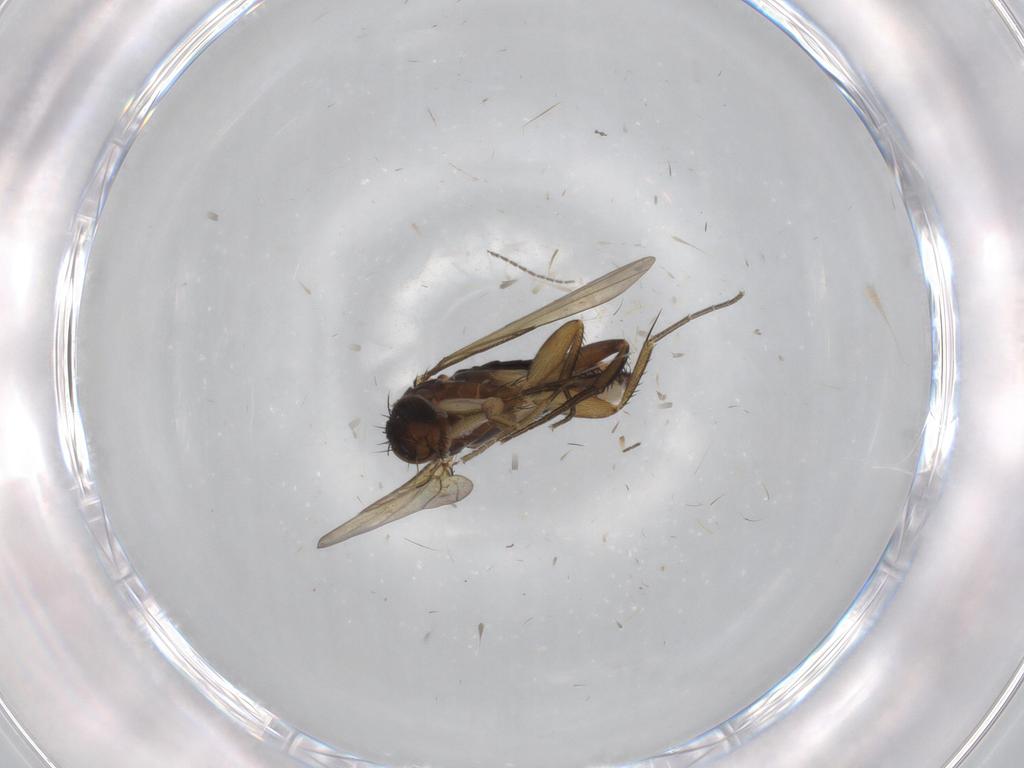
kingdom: Animalia
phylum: Arthropoda
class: Insecta
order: Diptera
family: Phoridae
